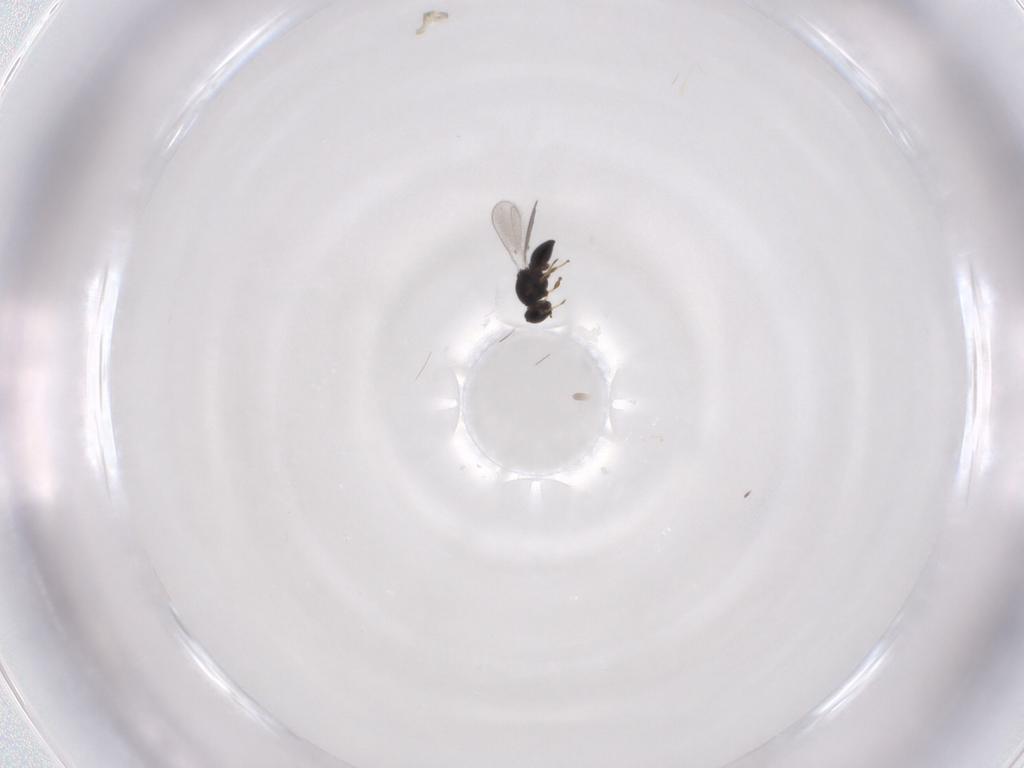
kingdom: Animalia
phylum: Arthropoda
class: Insecta
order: Hymenoptera
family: Platygastridae
